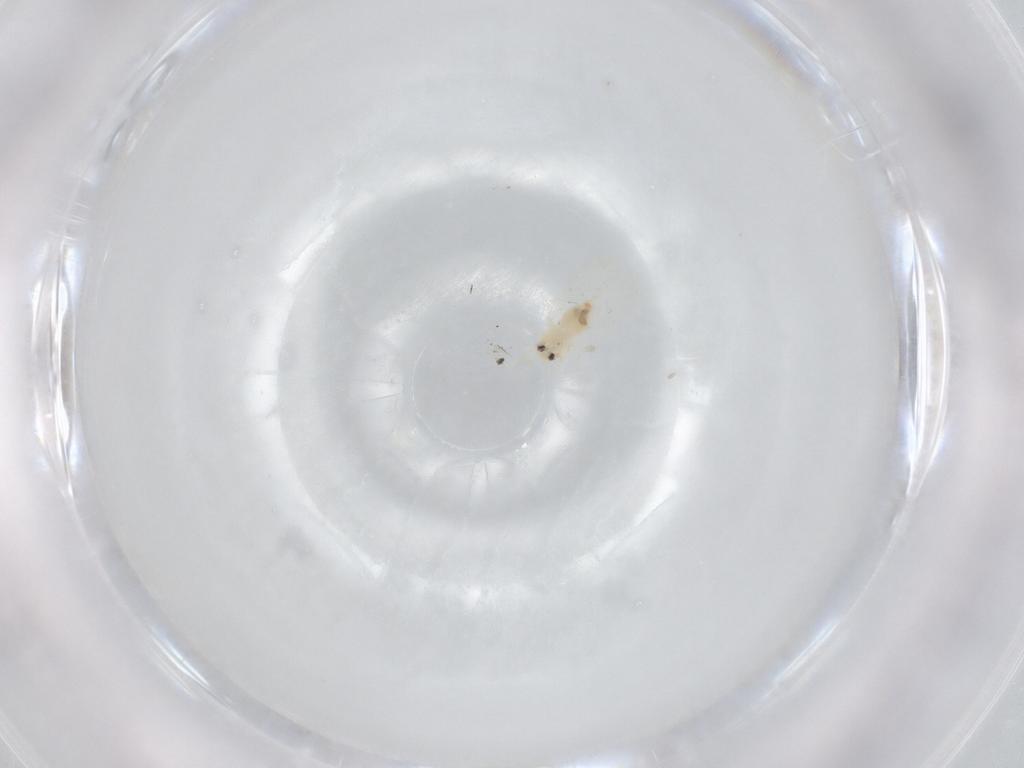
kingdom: Animalia
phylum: Arthropoda
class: Insecta
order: Hemiptera
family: Aleyrodidae
